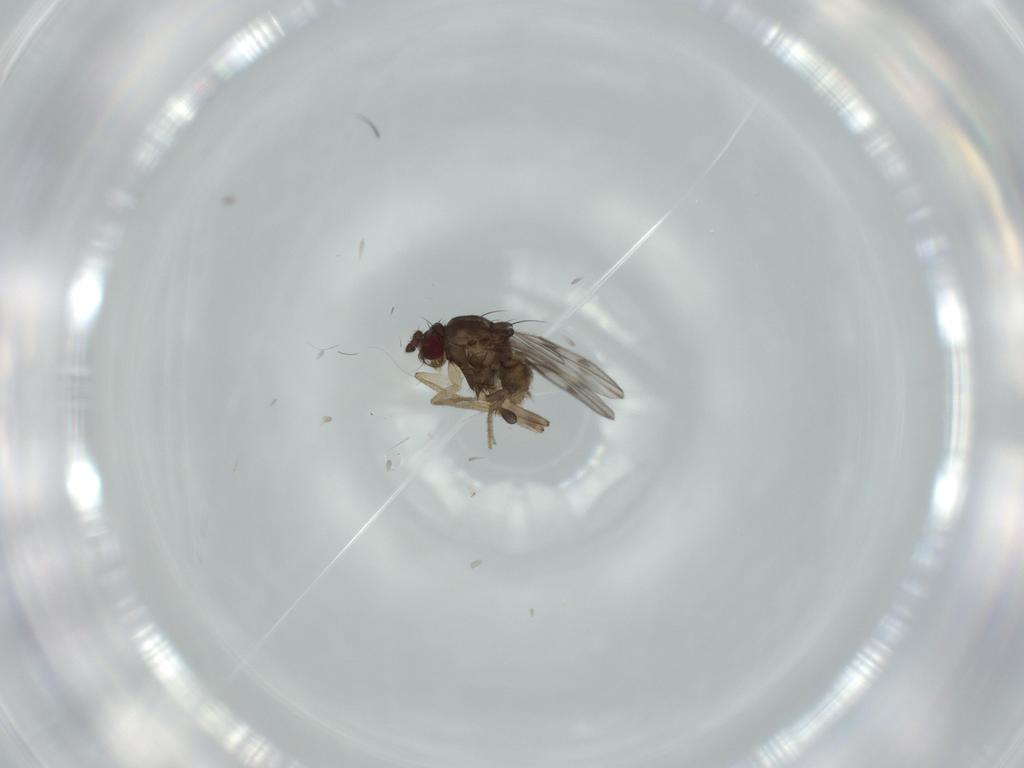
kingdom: Animalia
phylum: Arthropoda
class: Insecta
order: Diptera
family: Sphaeroceridae
